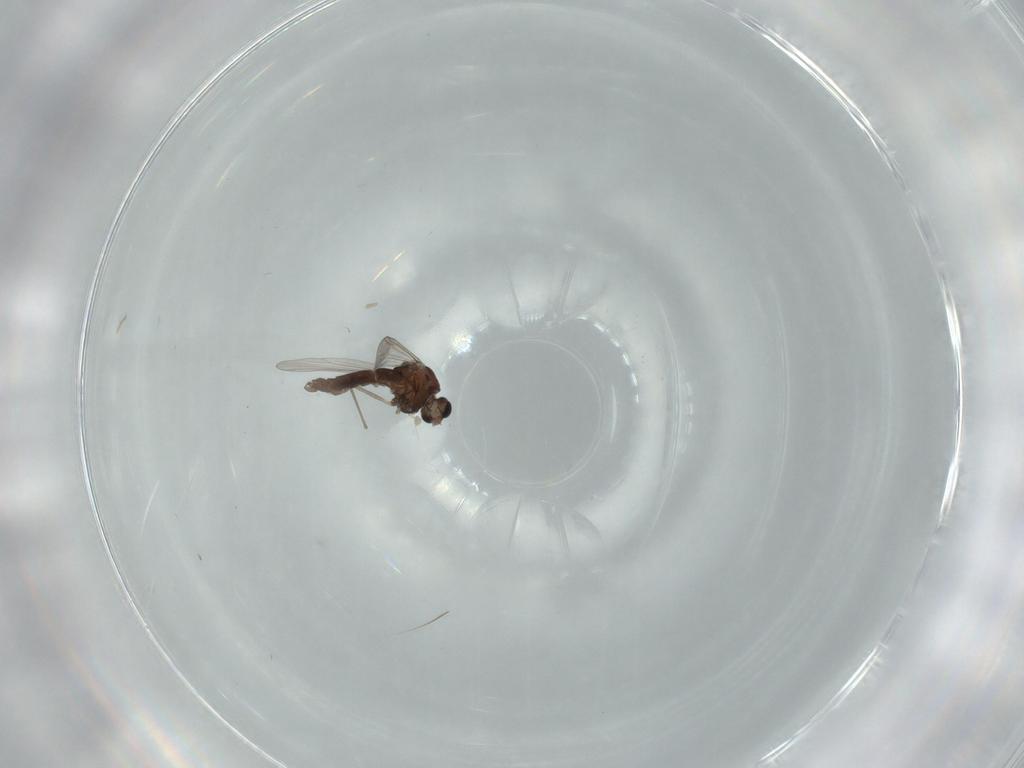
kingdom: Animalia
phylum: Arthropoda
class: Insecta
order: Diptera
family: Chironomidae
